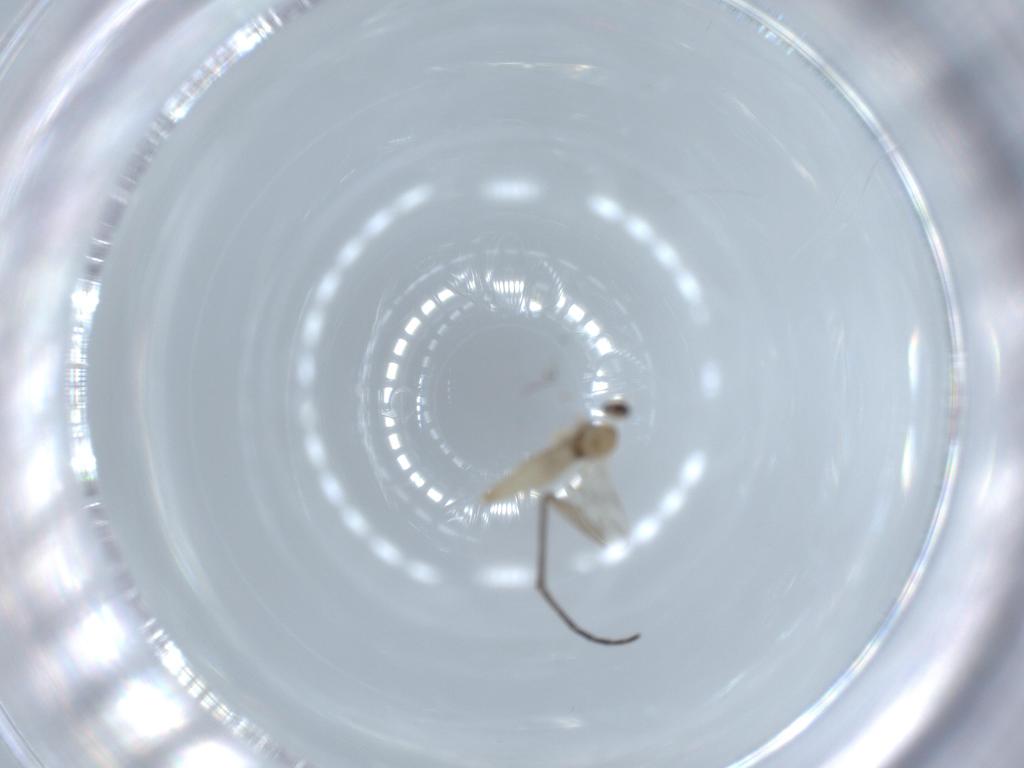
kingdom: Animalia
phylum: Arthropoda
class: Insecta
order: Diptera
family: Cecidomyiidae
